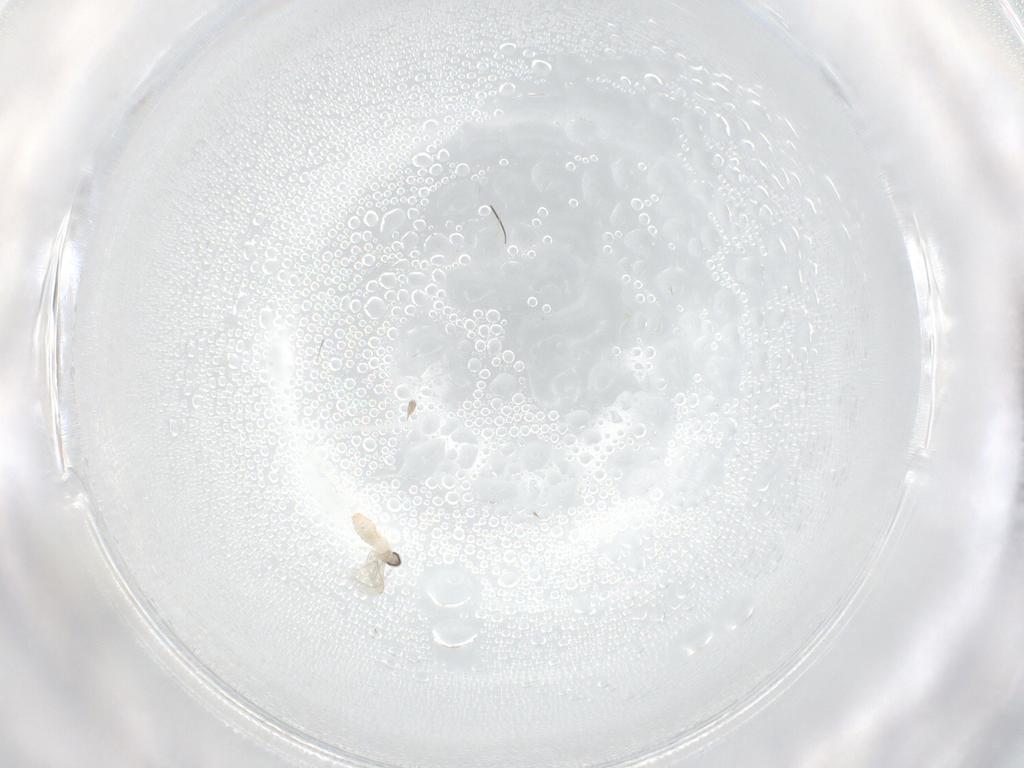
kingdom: Animalia
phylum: Arthropoda
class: Insecta
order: Diptera
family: Cecidomyiidae
